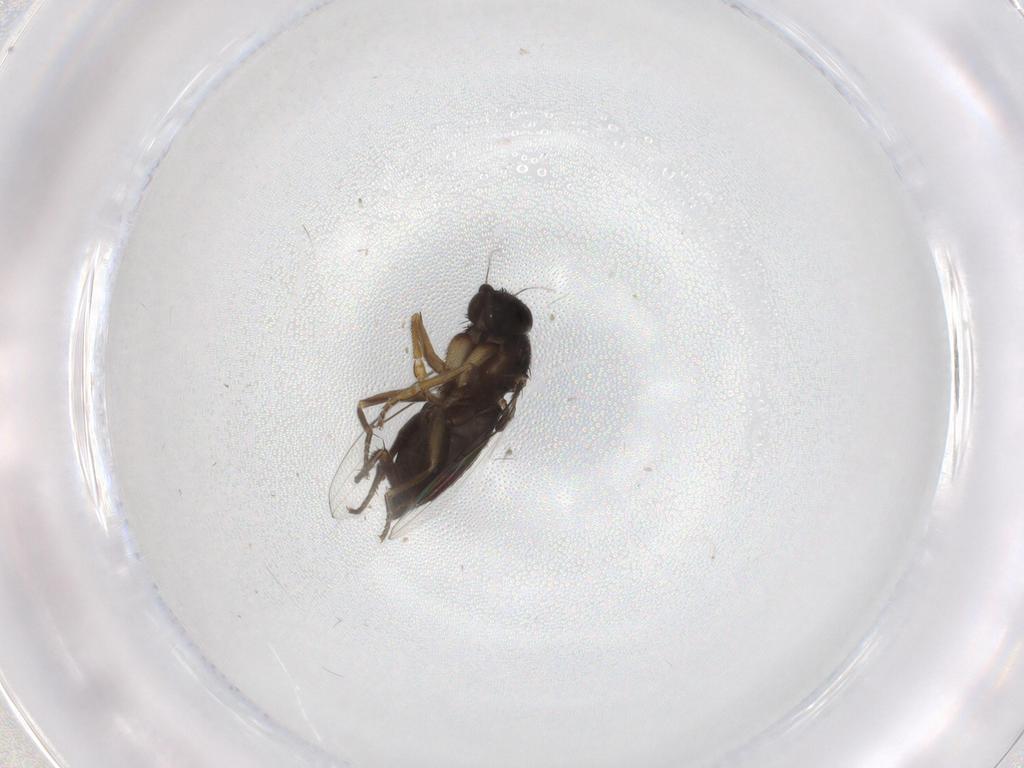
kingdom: Animalia
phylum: Arthropoda
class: Insecta
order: Diptera
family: Phoridae
